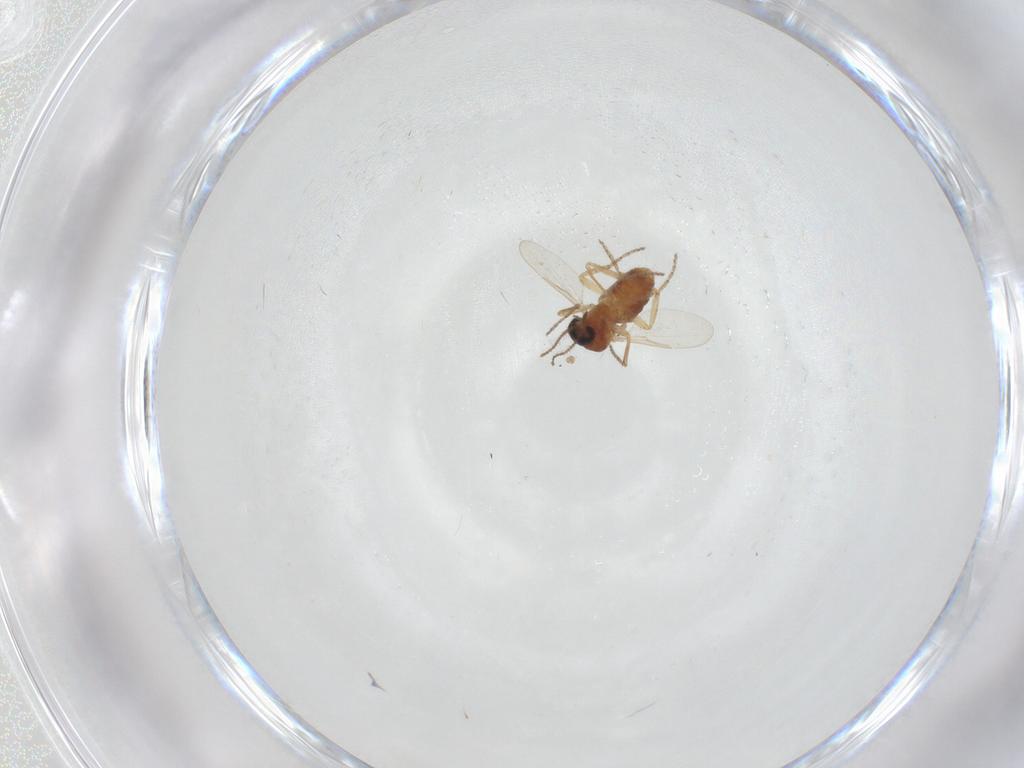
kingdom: Animalia
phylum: Arthropoda
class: Insecta
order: Diptera
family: Ceratopogonidae
